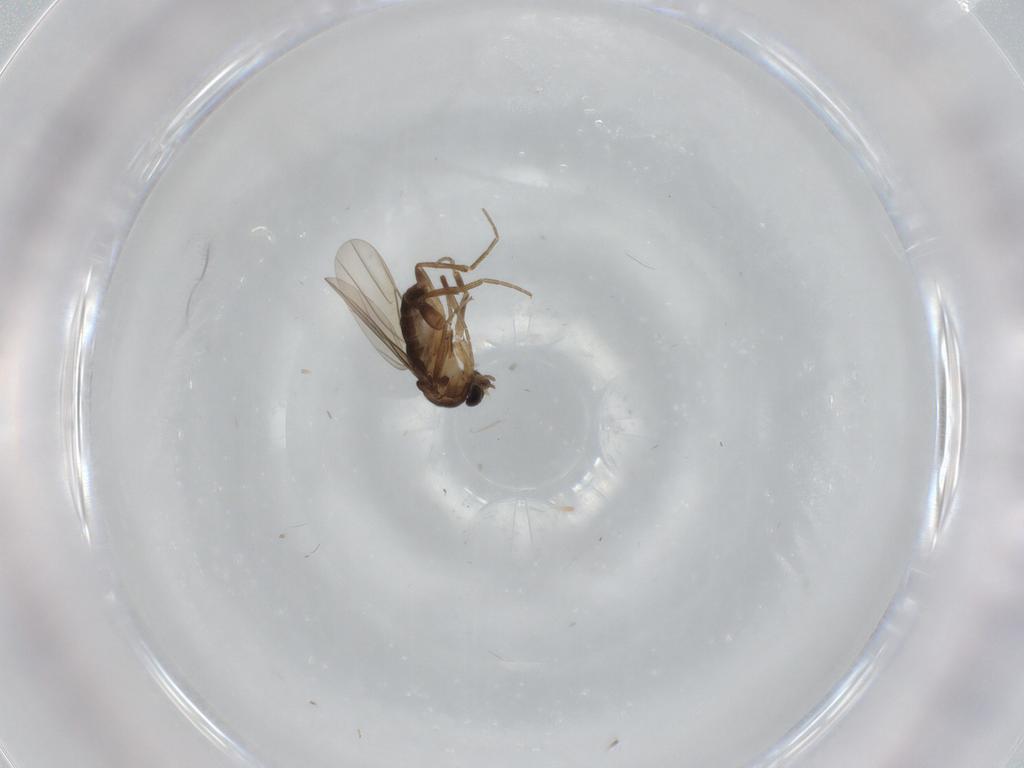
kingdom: Animalia
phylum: Arthropoda
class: Insecta
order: Diptera
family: Phoridae
